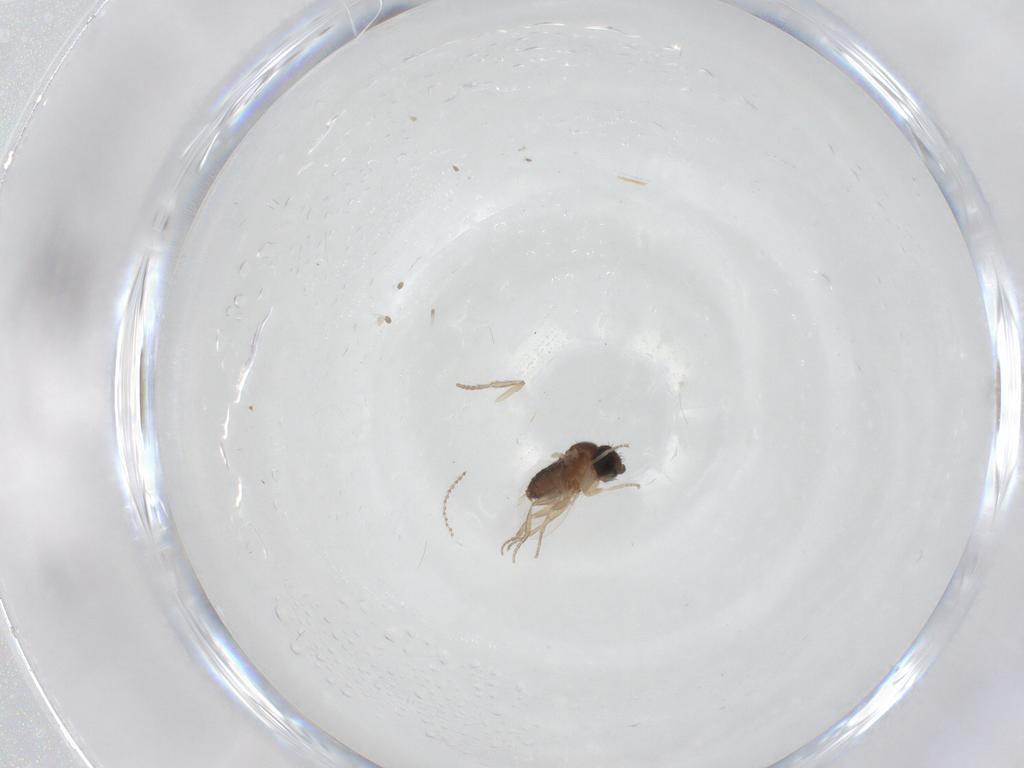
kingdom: Animalia
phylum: Arthropoda
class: Insecta
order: Diptera
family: Phoridae
